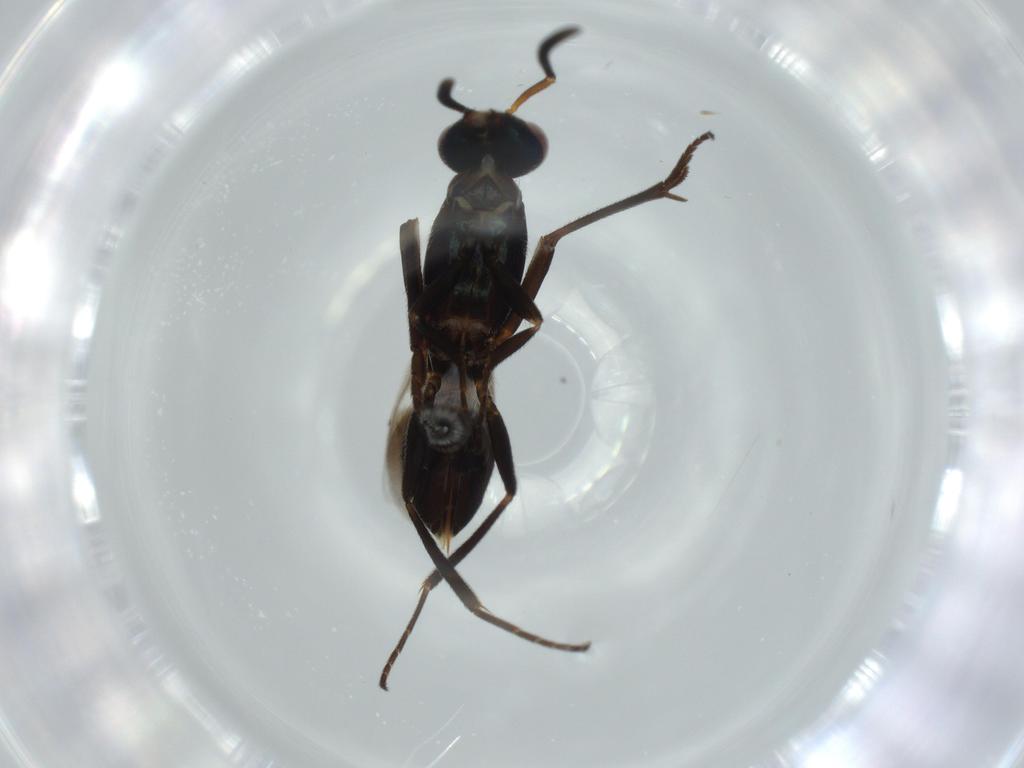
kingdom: Animalia
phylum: Arthropoda
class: Insecta
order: Hymenoptera
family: Eupelmidae
